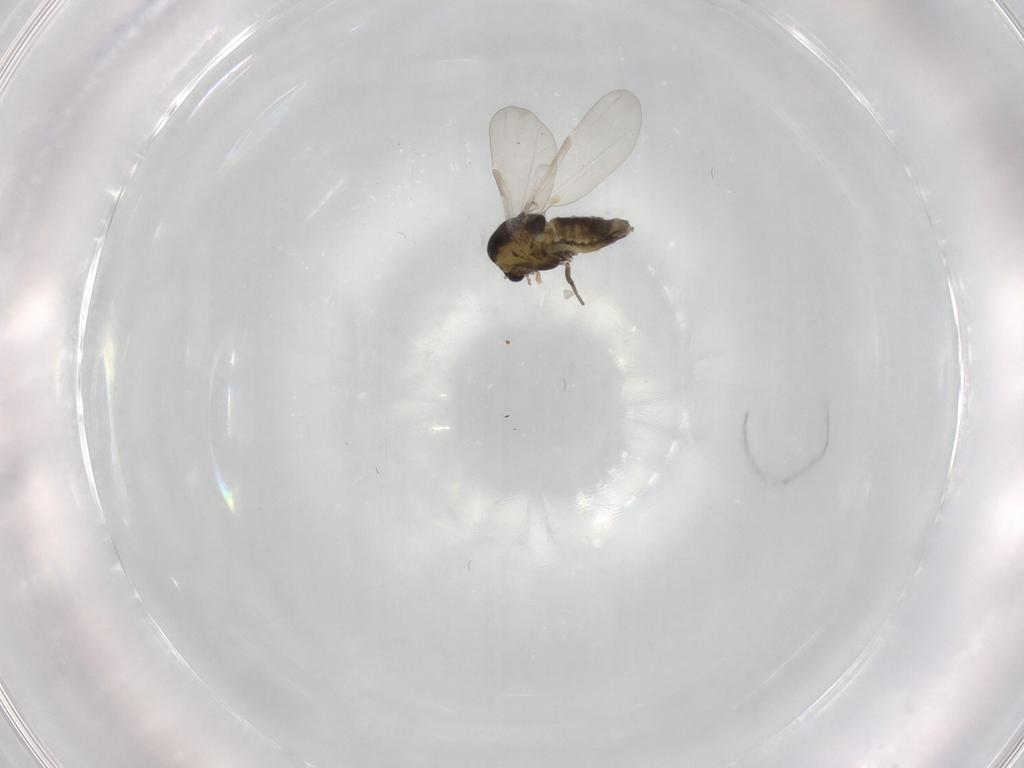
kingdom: Animalia
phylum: Arthropoda
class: Insecta
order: Diptera
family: Chironomidae
